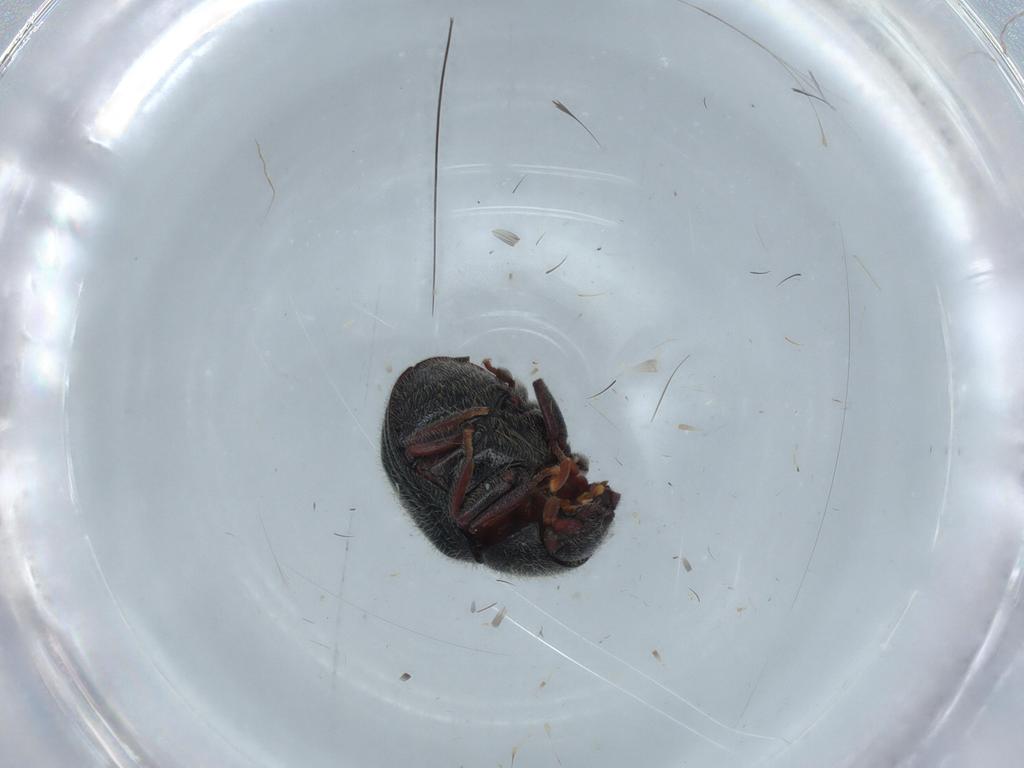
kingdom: Animalia
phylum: Arthropoda
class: Insecta
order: Coleoptera
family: Ptinidae
